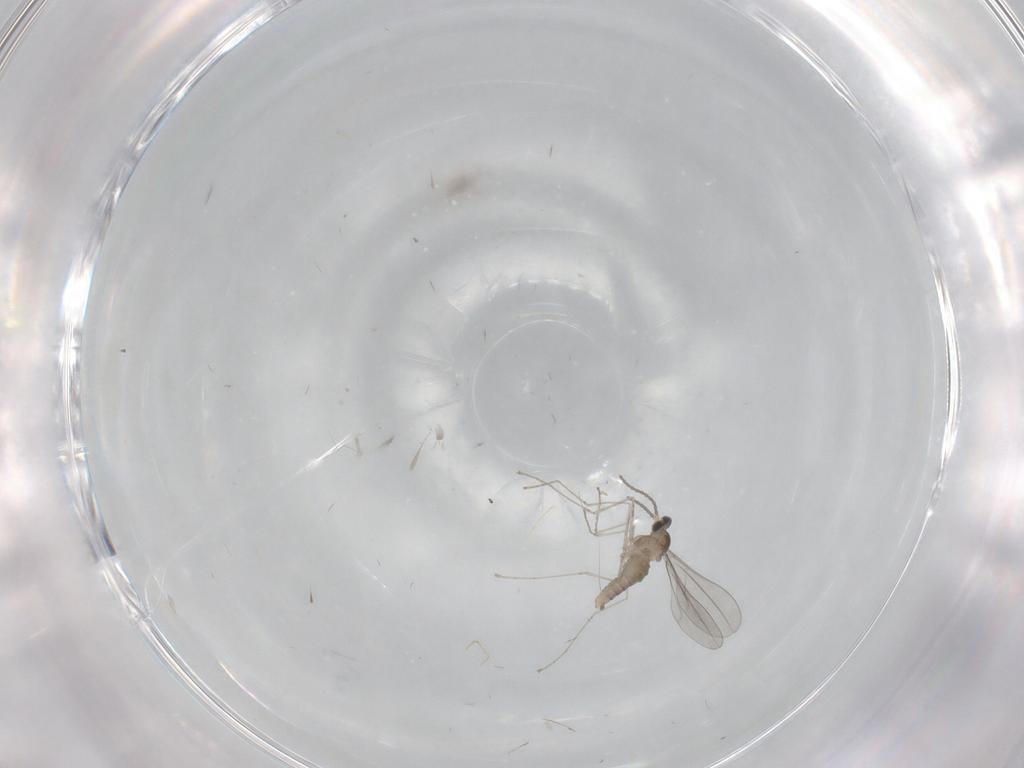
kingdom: Animalia
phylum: Arthropoda
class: Insecta
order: Diptera
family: Cecidomyiidae
